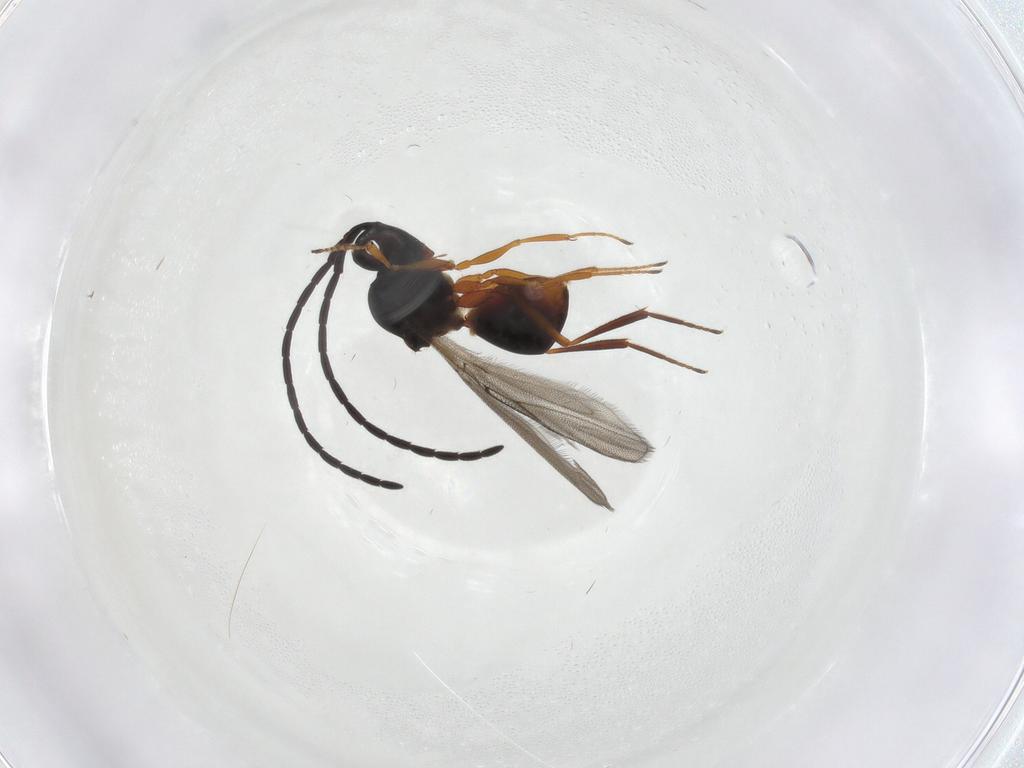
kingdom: Animalia
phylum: Arthropoda
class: Insecta
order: Hymenoptera
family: Figitidae
